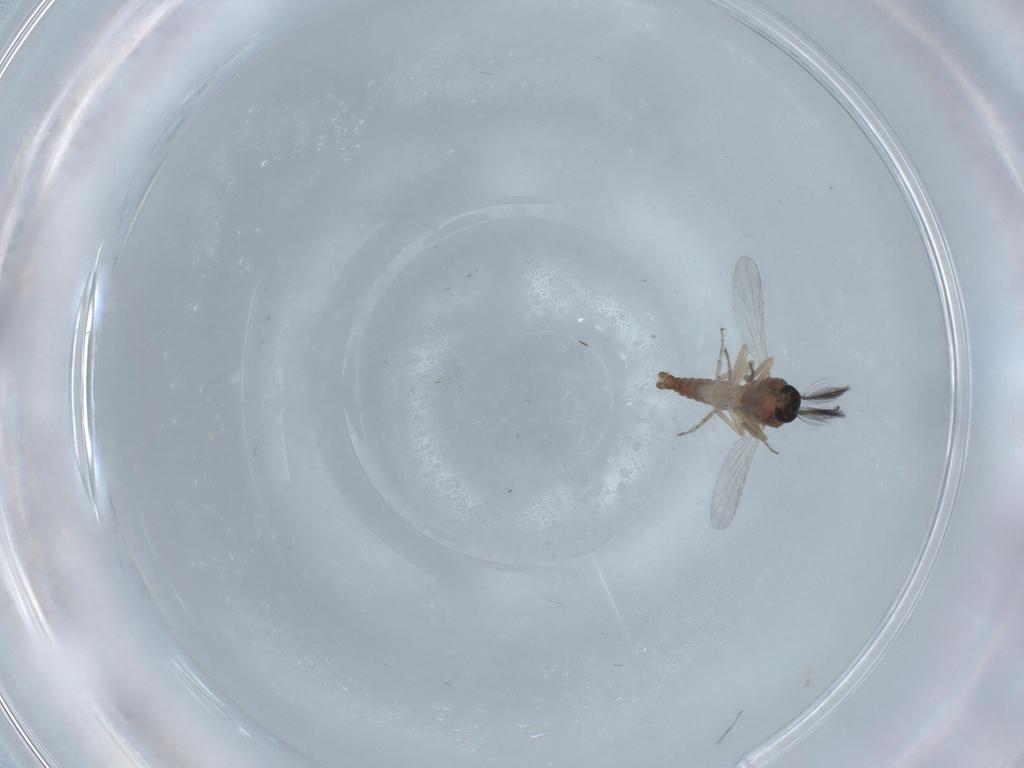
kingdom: Animalia
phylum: Arthropoda
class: Insecta
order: Diptera
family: Ceratopogonidae
